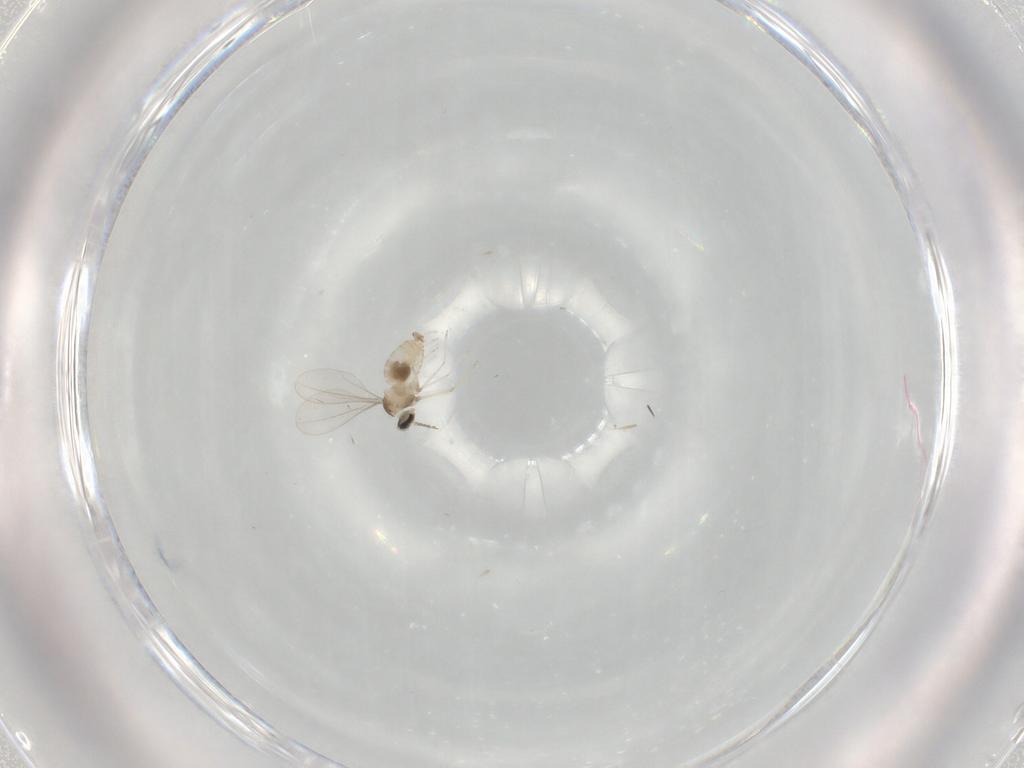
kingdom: Animalia
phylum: Arthropoda
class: Insecta
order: Diptera
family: Cecidomyiidae
